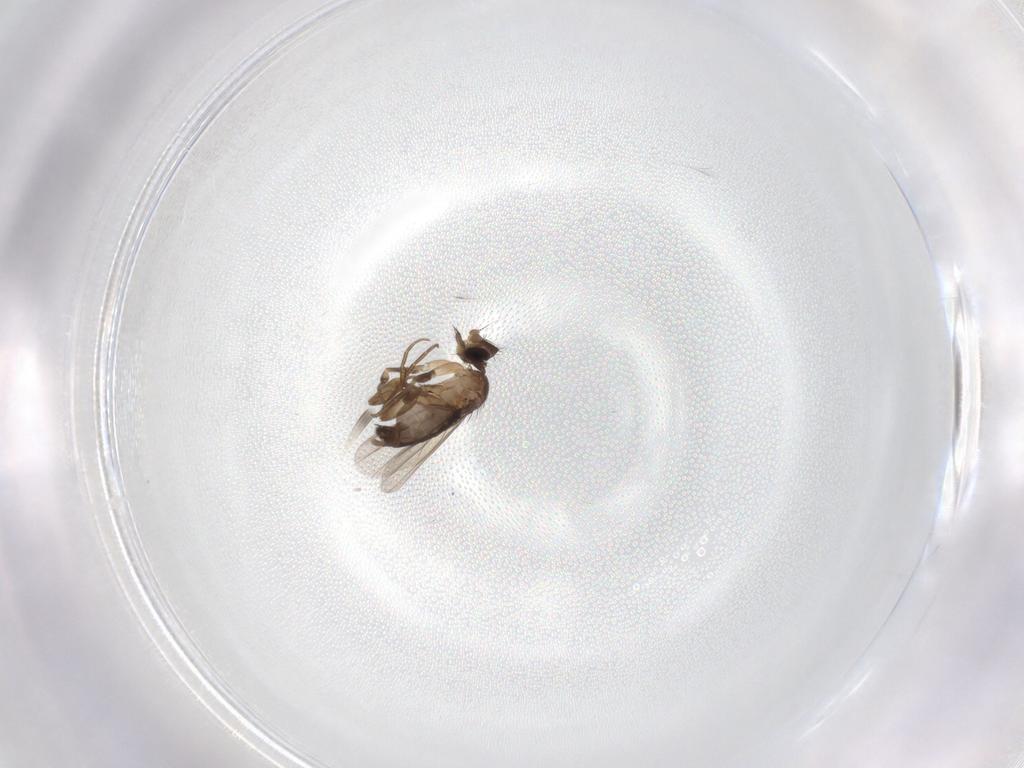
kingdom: Animalia
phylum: Arthropoda
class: Insecta
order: Diptera
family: Phoridae
